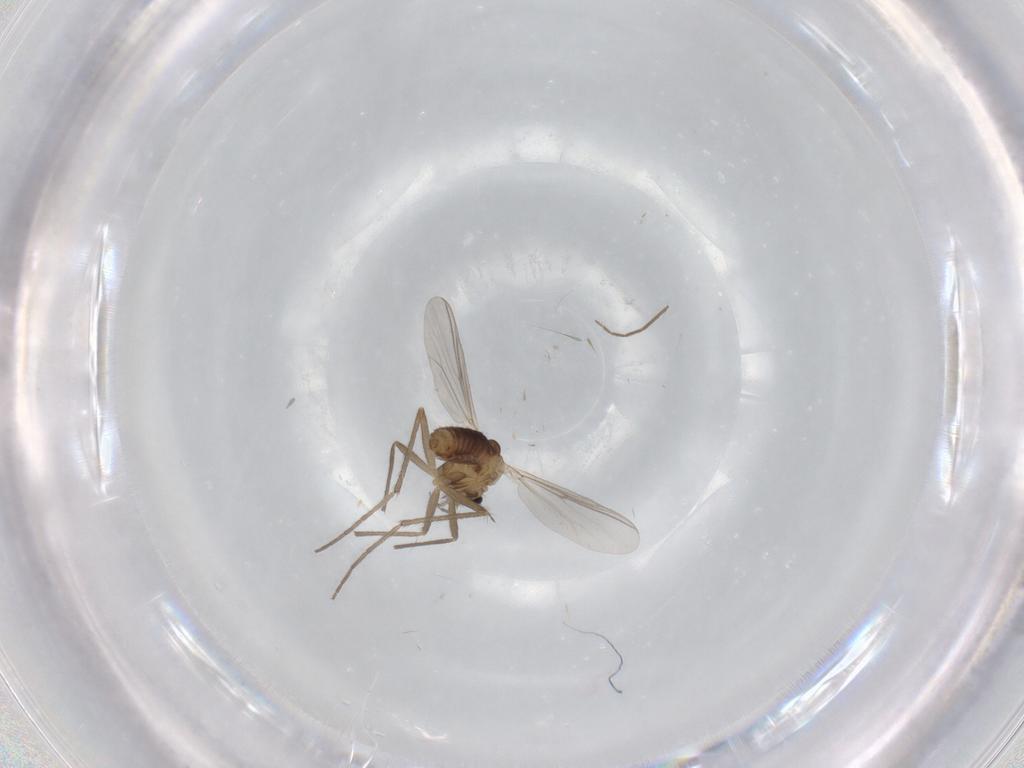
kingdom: Animalia
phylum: Arthropoda
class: Insecta
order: Diptera
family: Chironomidae
